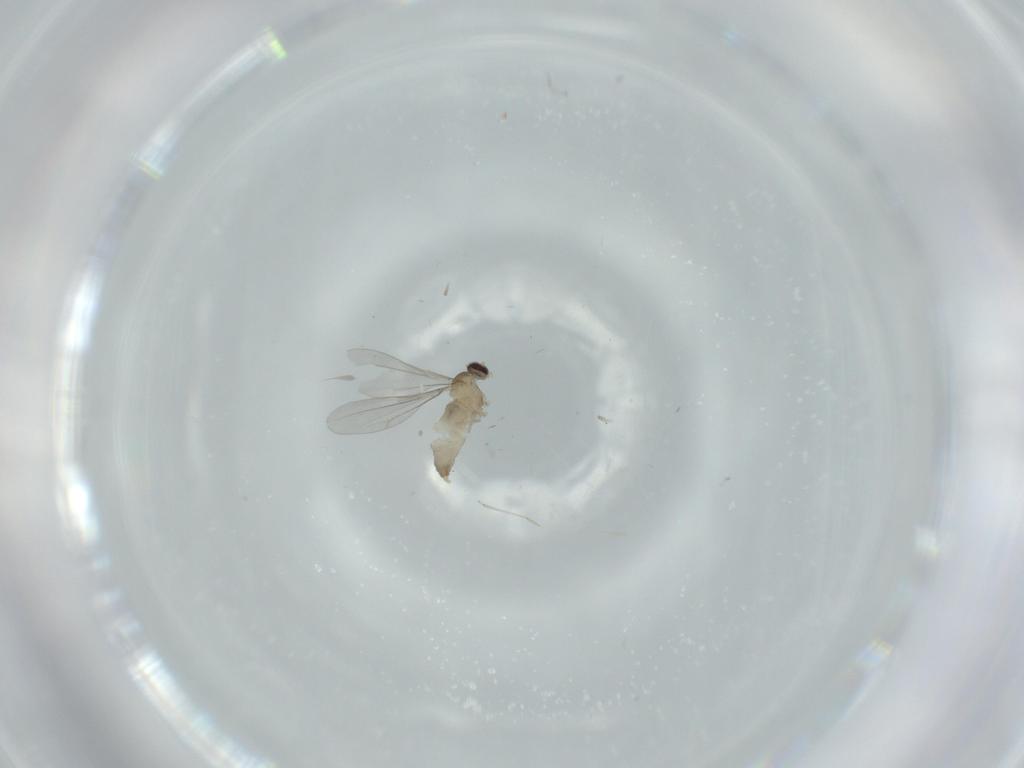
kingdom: Animalia
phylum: Arthropoda
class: Insecta
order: Diptera
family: Cecidomyiidae
